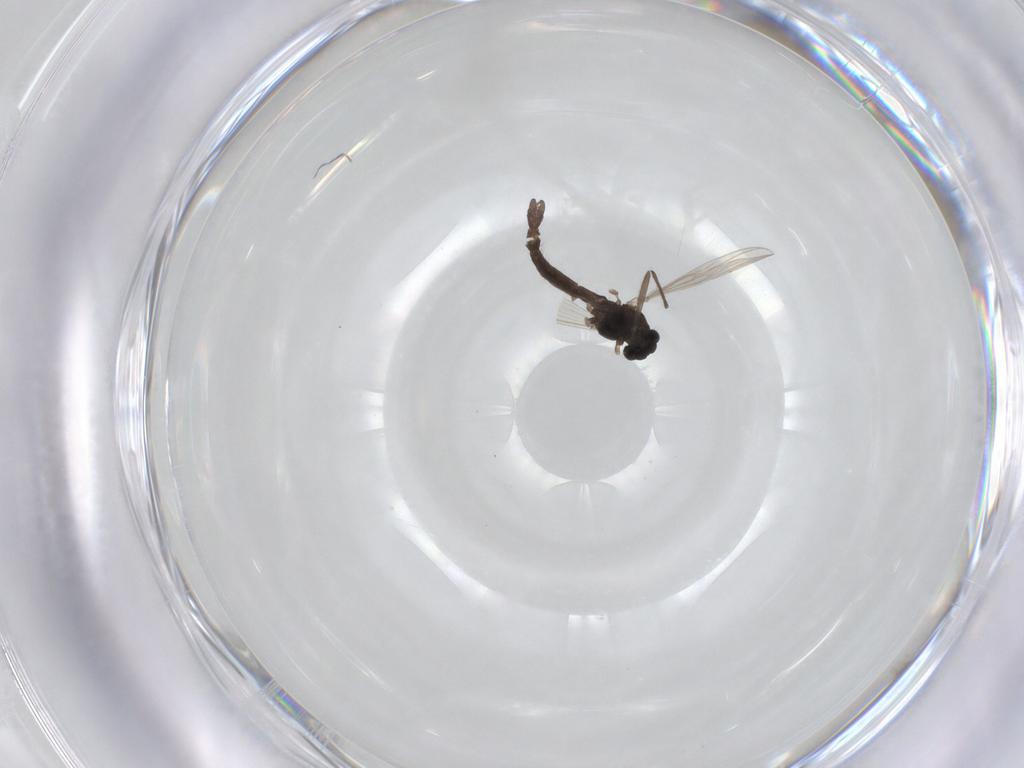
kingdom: Animalia
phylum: Arthropoda
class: Insecta
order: Diptera
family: Chironomidae
